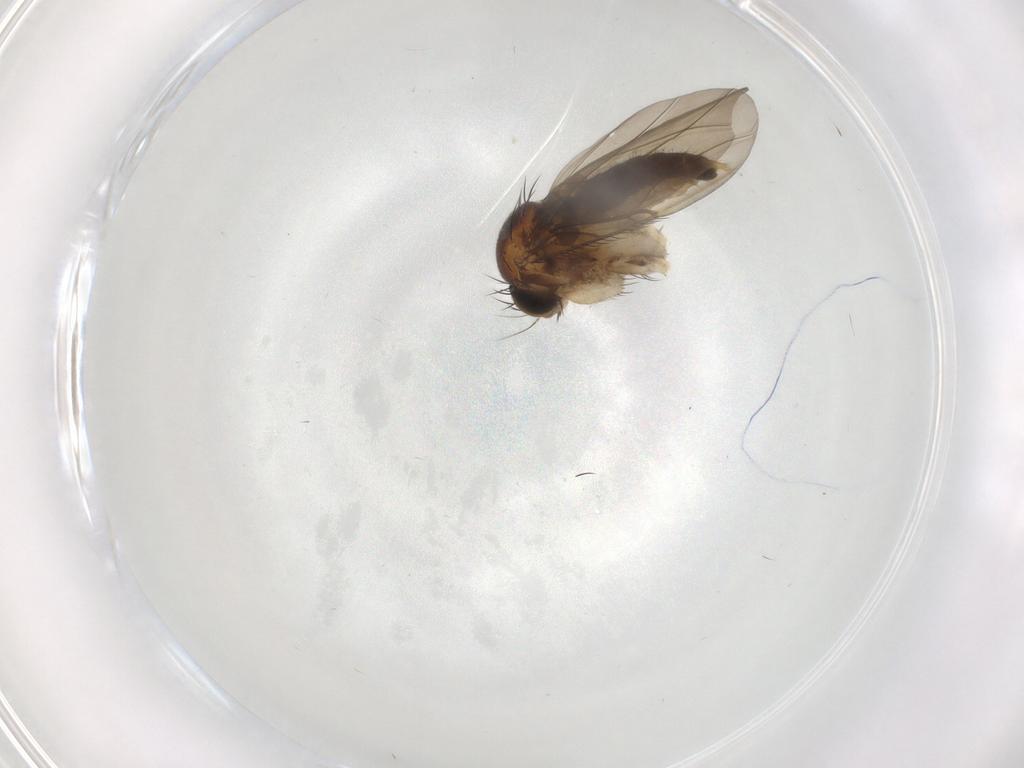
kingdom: Animalia
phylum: Arthropoda
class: Insecta
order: Diptera
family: Phoridae
